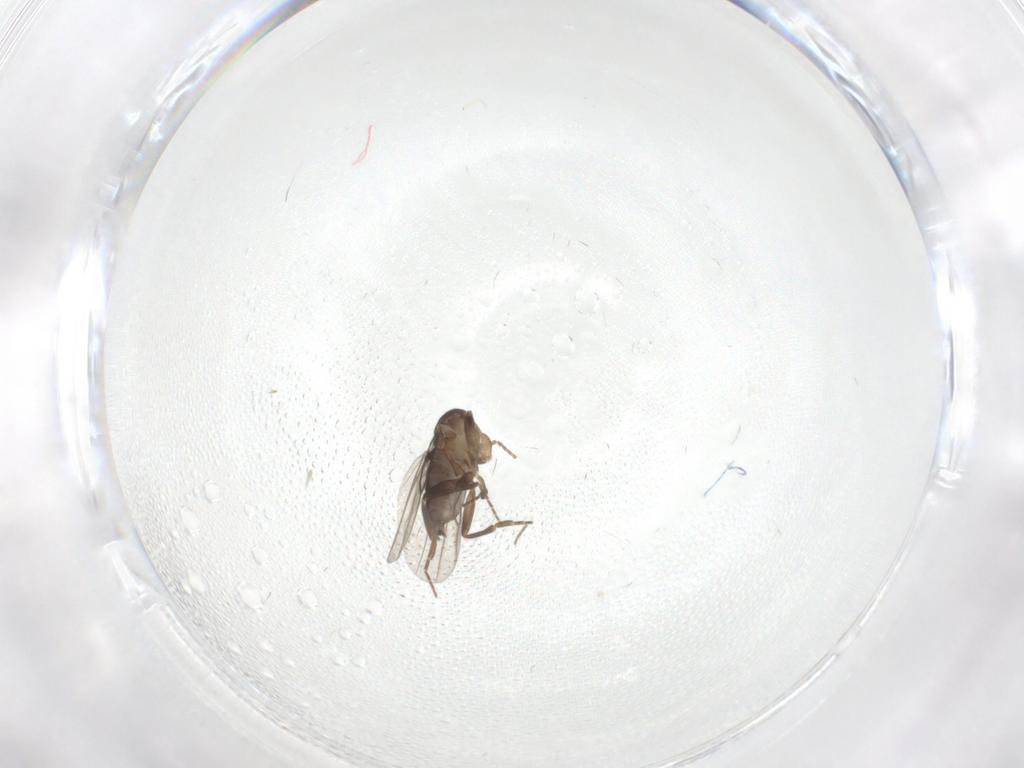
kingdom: Animalia
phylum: Arthropoda
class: Insecta
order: Diptera
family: Phoridae
